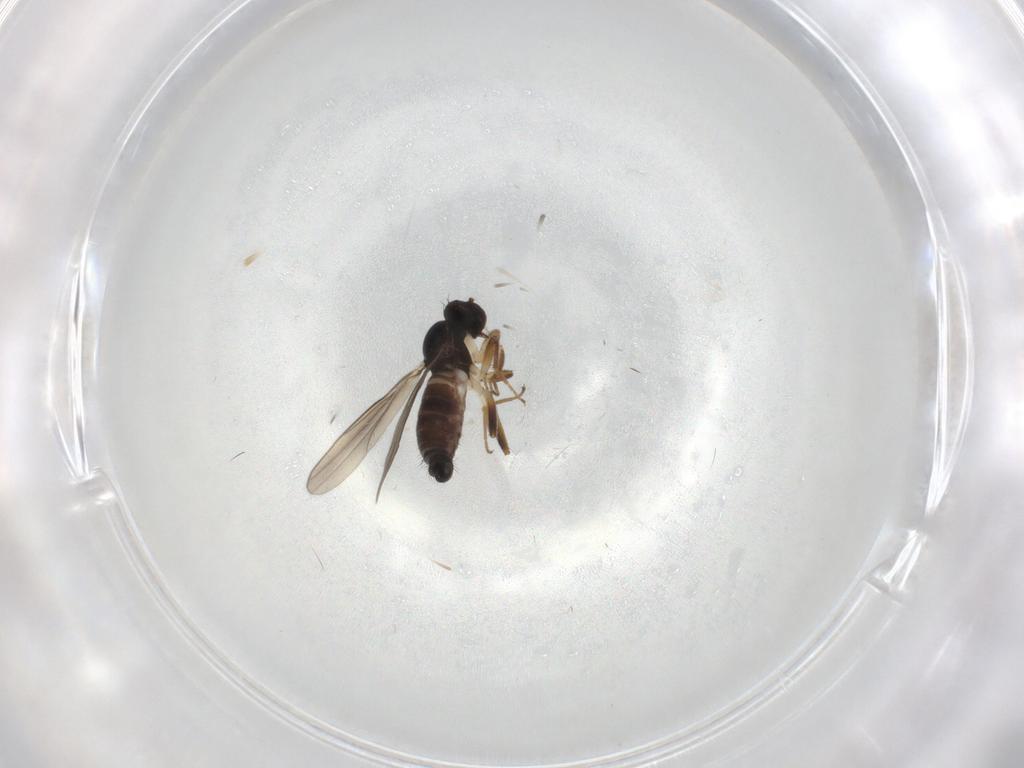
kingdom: Animalia
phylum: Arthropoda
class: Insecta
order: Diptera
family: Hybotidae
